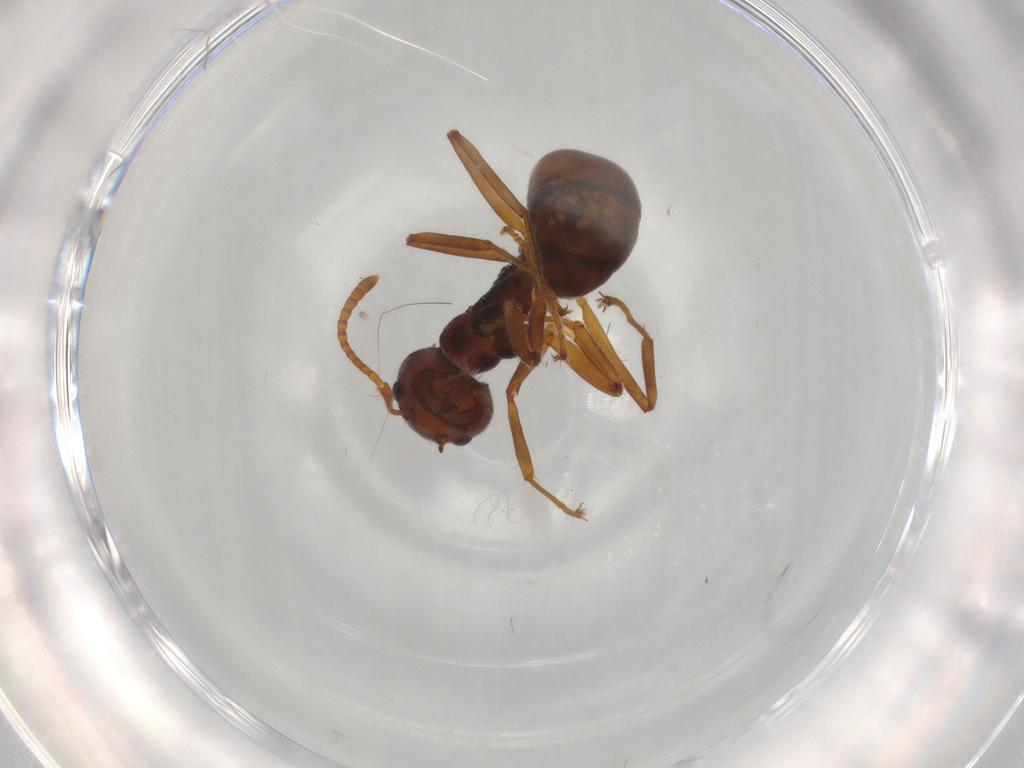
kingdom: Animalia
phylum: Arthropoda
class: Insecta
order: Hymenoptera
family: Formicidae
